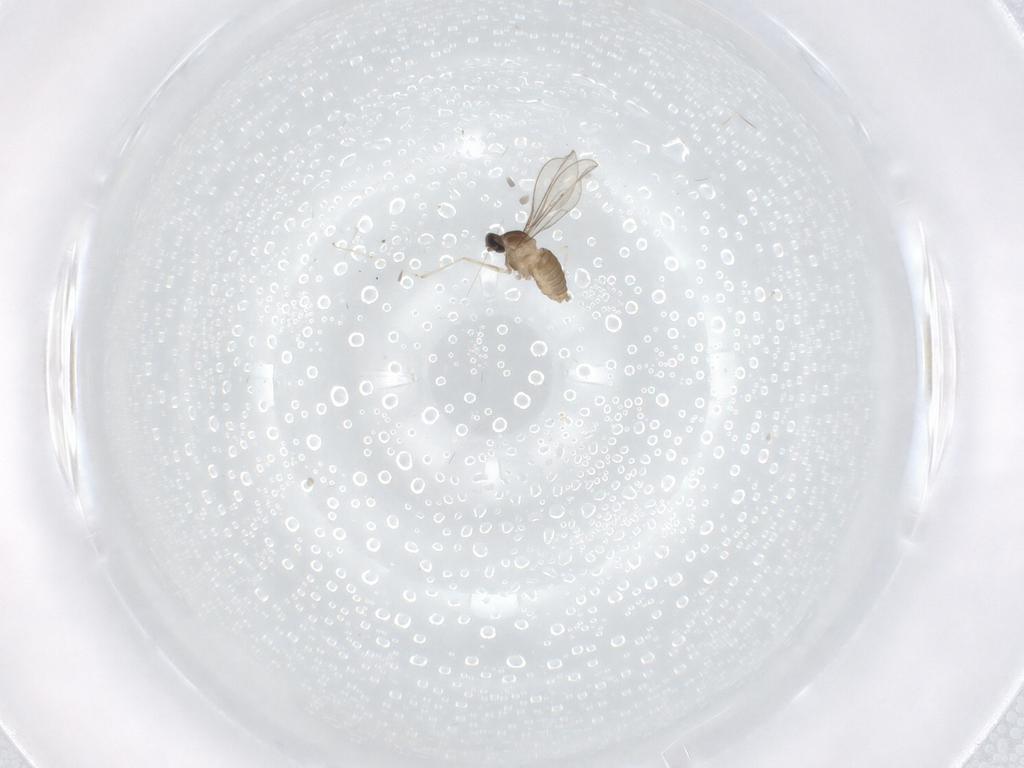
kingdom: Animalia
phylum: Arthropoda
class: Insecta
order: Diptera
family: Cecidomyiidae
